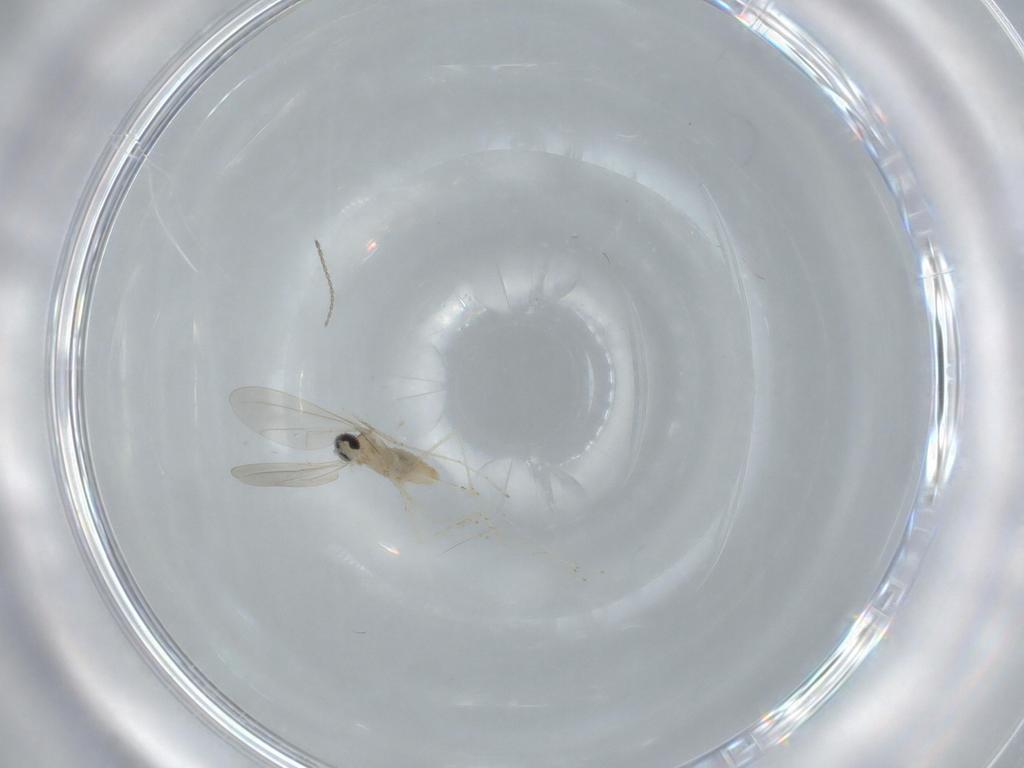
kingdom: Animalia
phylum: Arthropoda
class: Insecta
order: Diptera
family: Cecidomyiidae
